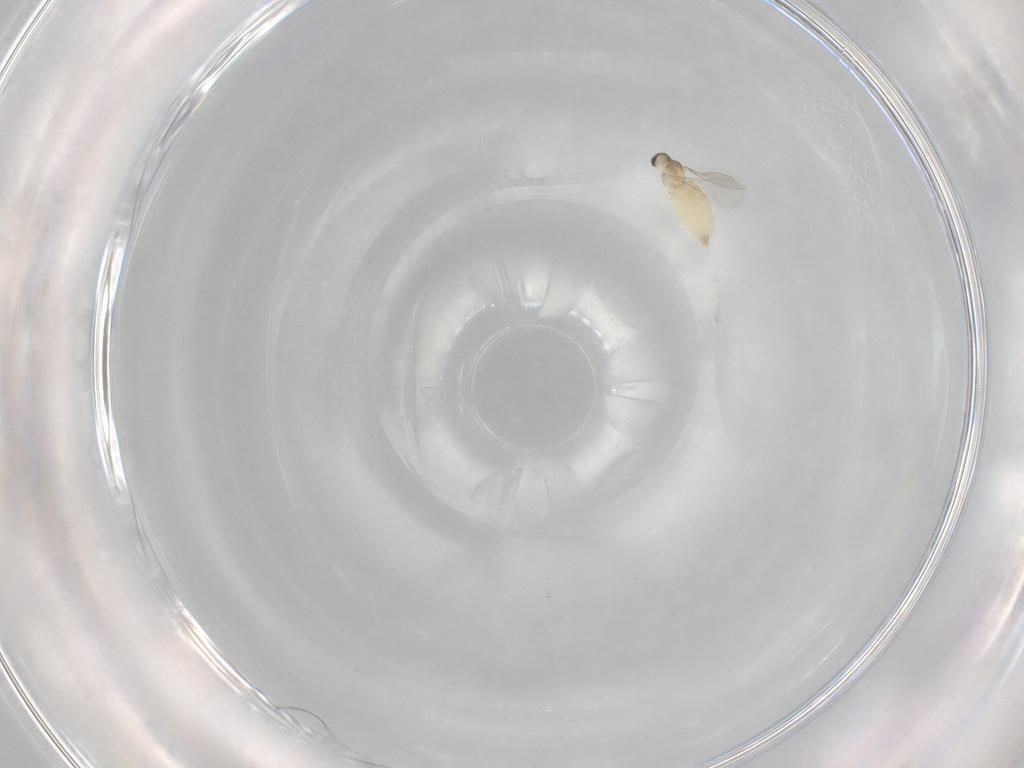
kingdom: Animalia
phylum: Arthropoda
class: Insecta
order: Diptera
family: Cecidomyiidae
